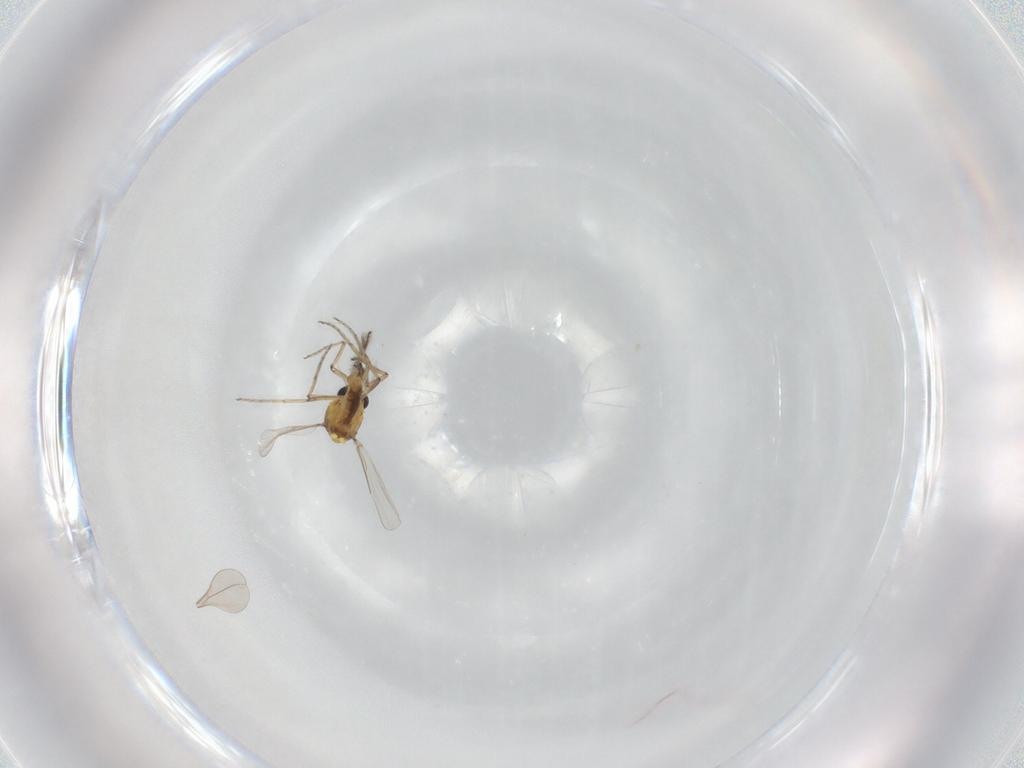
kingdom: Animalia
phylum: Arthropoda
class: Insecta
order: Diptera
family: Ceratopogonidae
